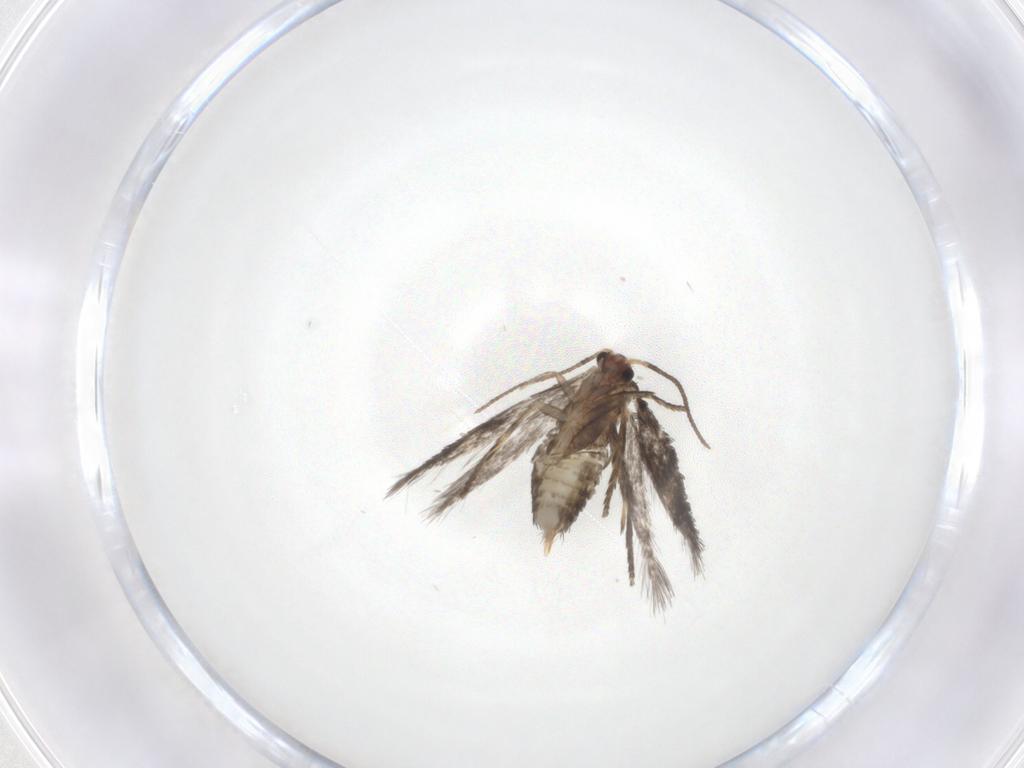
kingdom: Animalia
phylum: Arthropoda
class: Insecta
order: Lepidoptera
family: Nepticulidae
